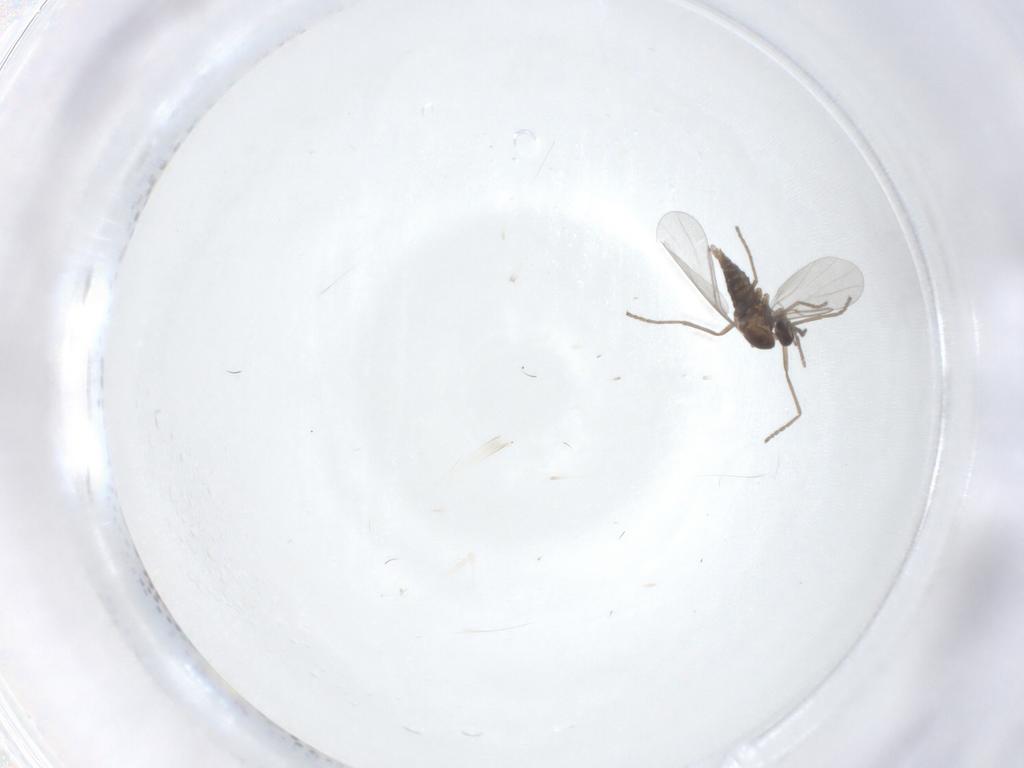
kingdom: Animalia
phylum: Arthropoda
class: Insecta
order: Diptera
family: Cecidomyiidae
